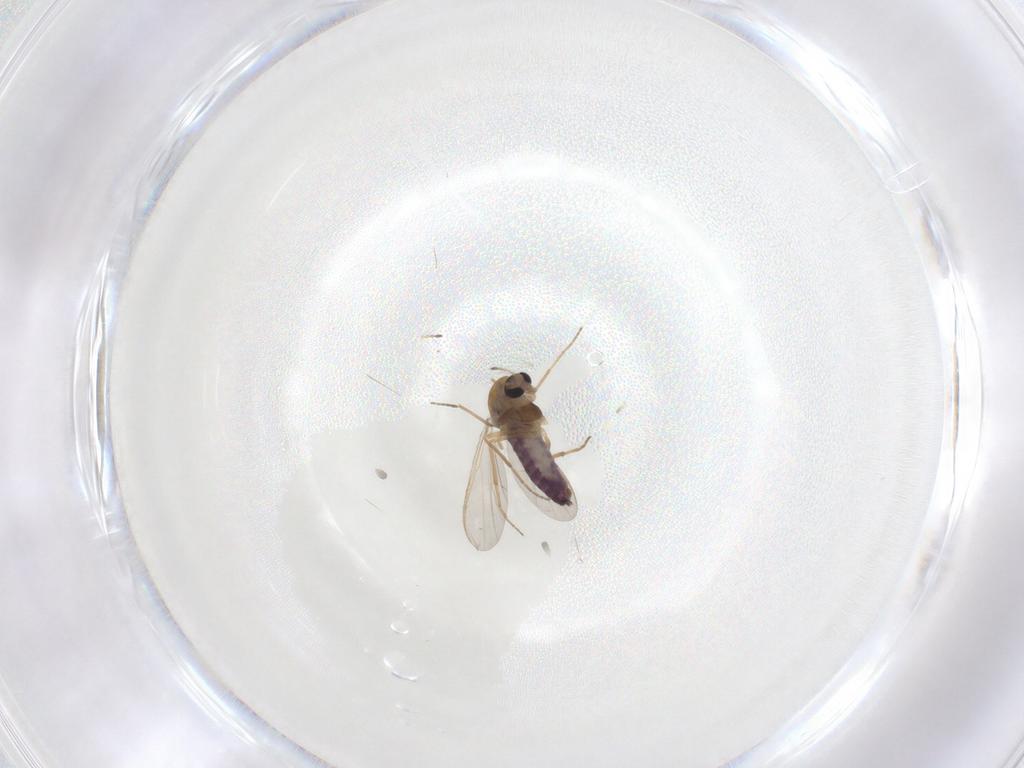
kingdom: Animalia
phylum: Arthropoda
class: Insecta
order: Diptera
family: Chironomidae
